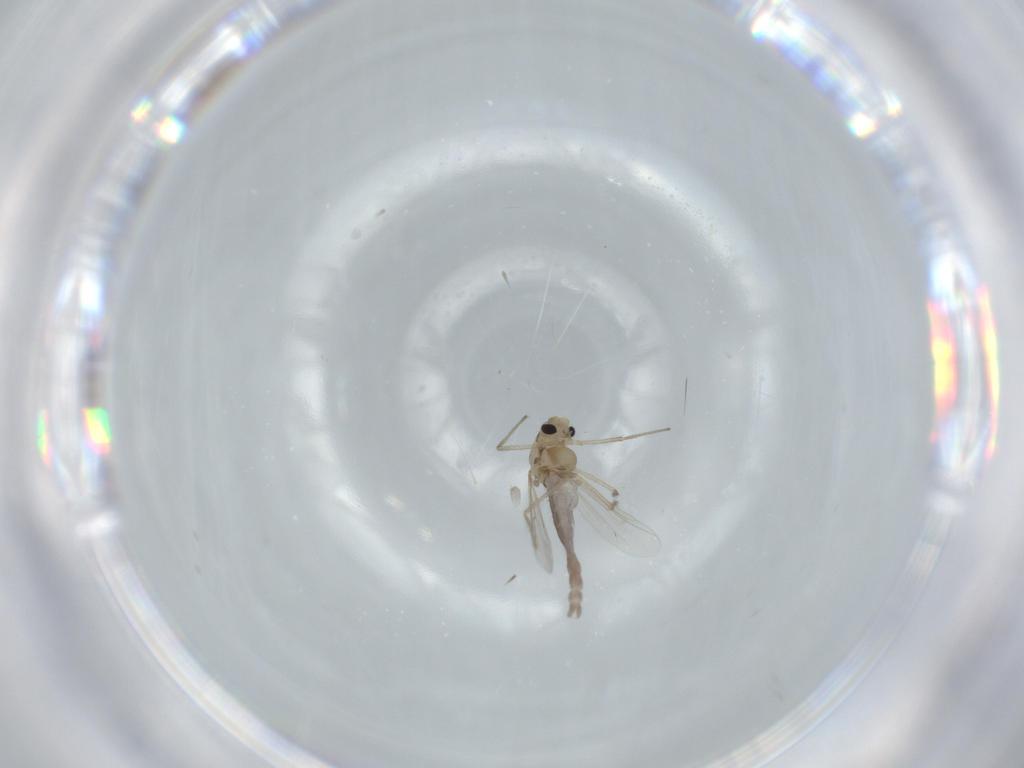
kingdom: Animalia
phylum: Arthropoda
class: Insecta
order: Diptera
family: Chironomidae
